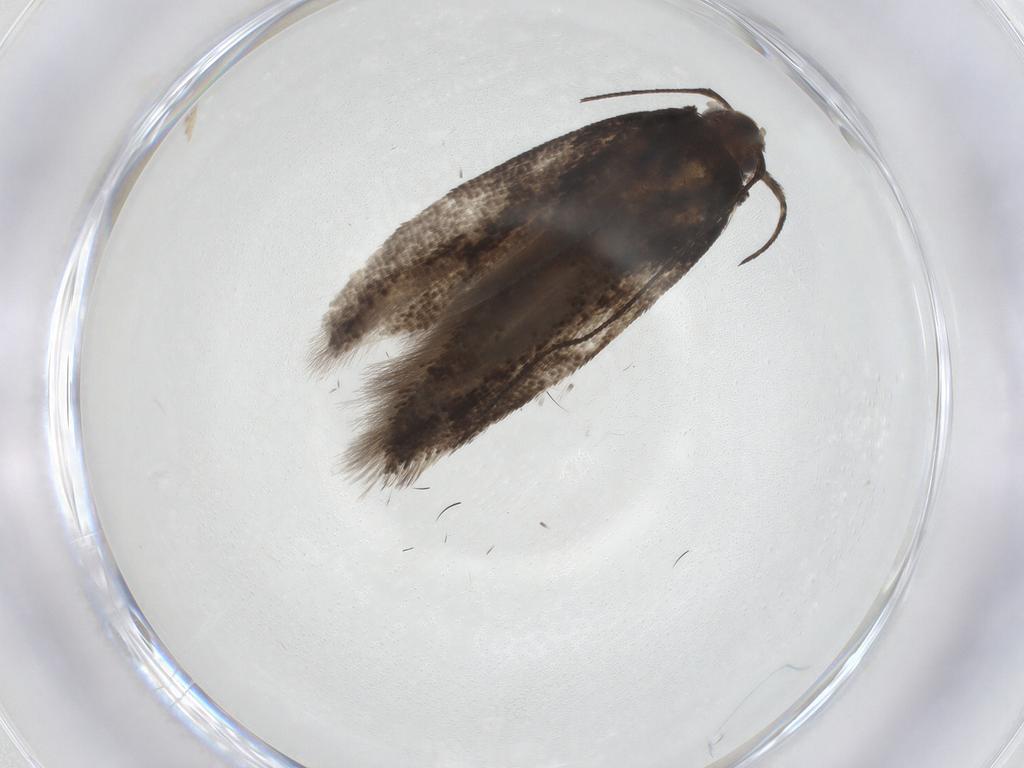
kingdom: Animalia
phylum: Arthropoda
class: Insecta
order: Lepidoptera
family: Gelechiidae
